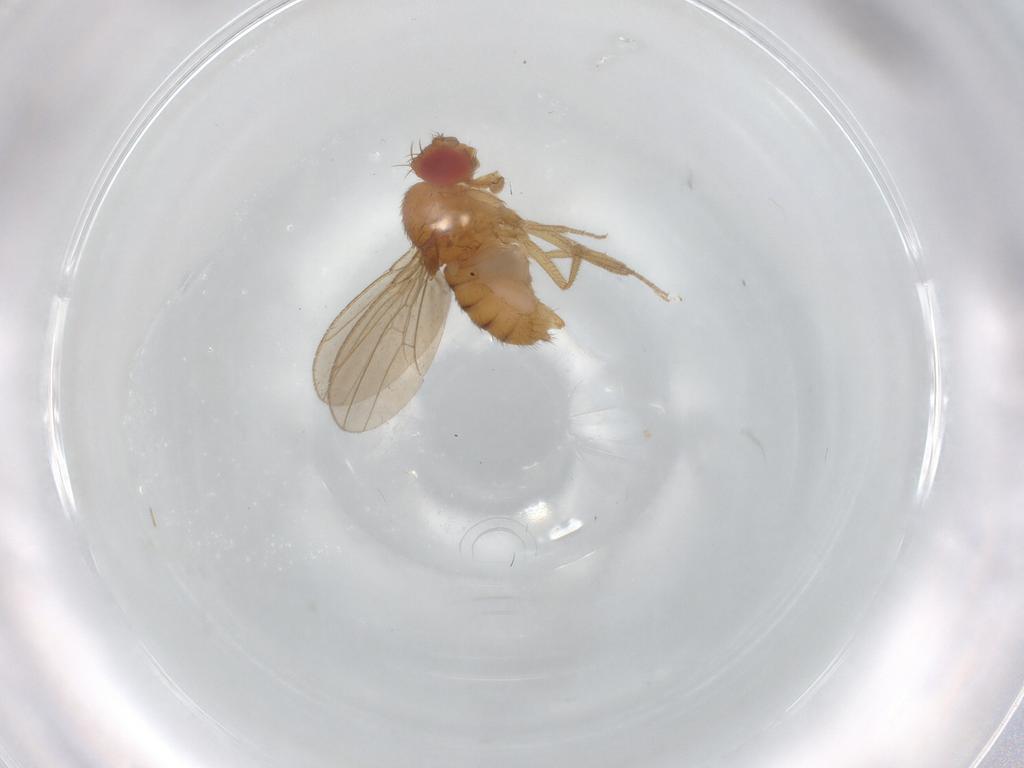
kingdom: Animalia
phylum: Arthropoda
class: Insecta
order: Diptera
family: Drosophilidae
